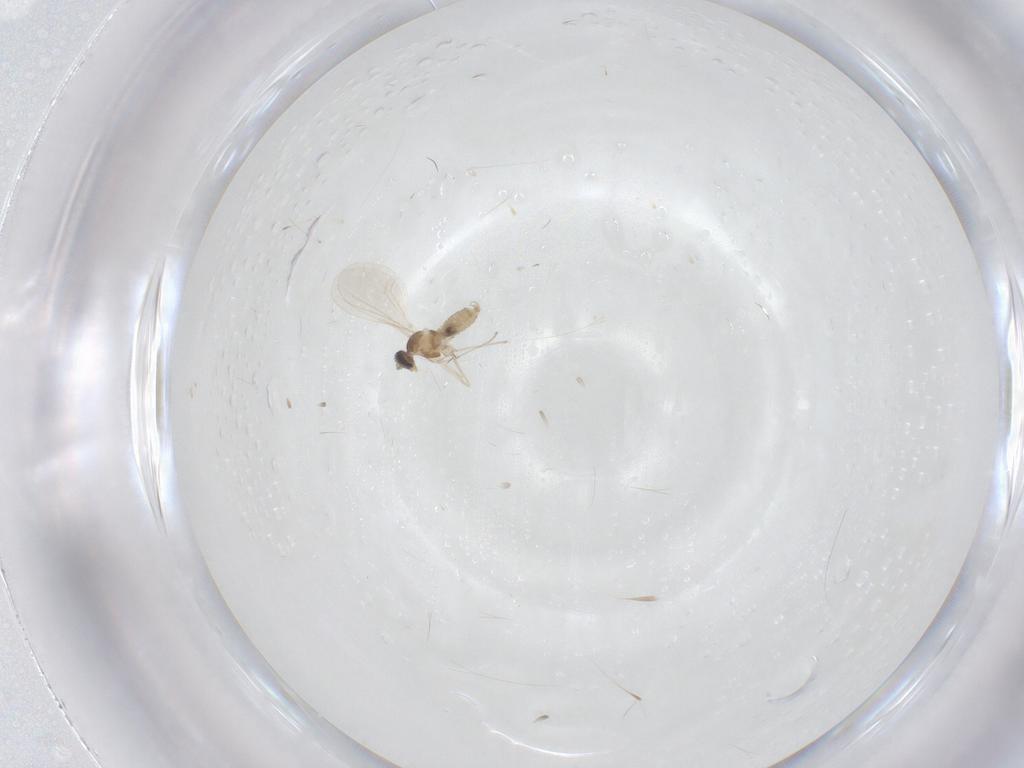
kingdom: Animalia
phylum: Arthropoda
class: Insecta
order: Diptera
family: Cecidomyiidae
